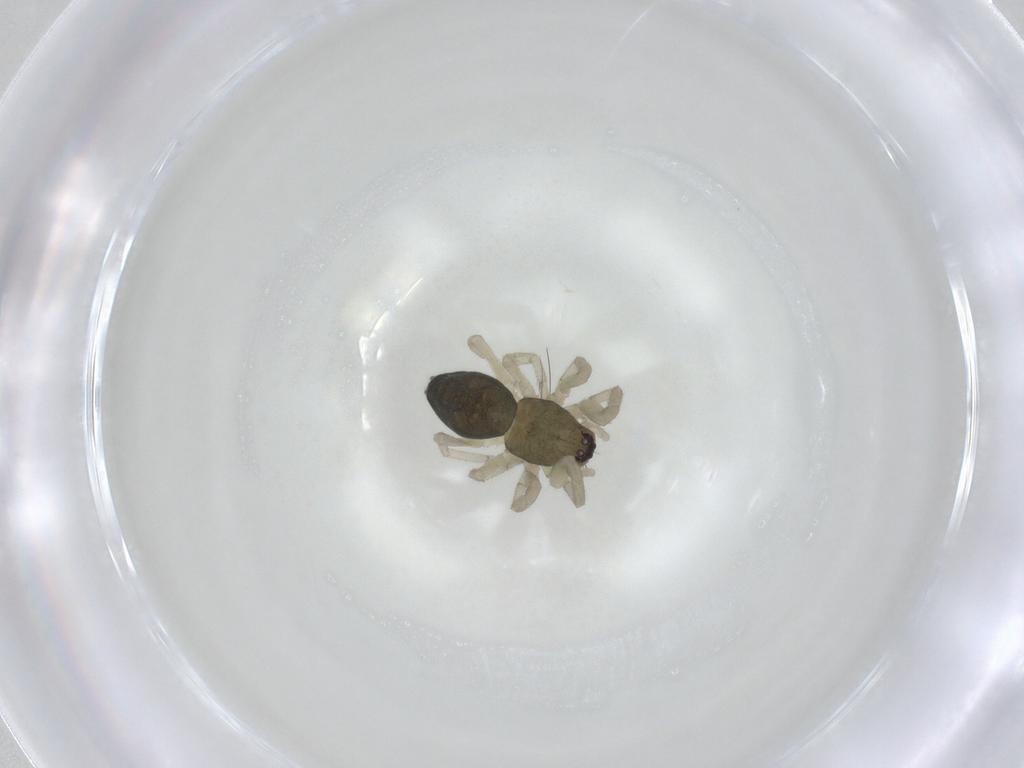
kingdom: Animalia
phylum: Arthropoda
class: Arachnida
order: Araneae
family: Trachelidae
